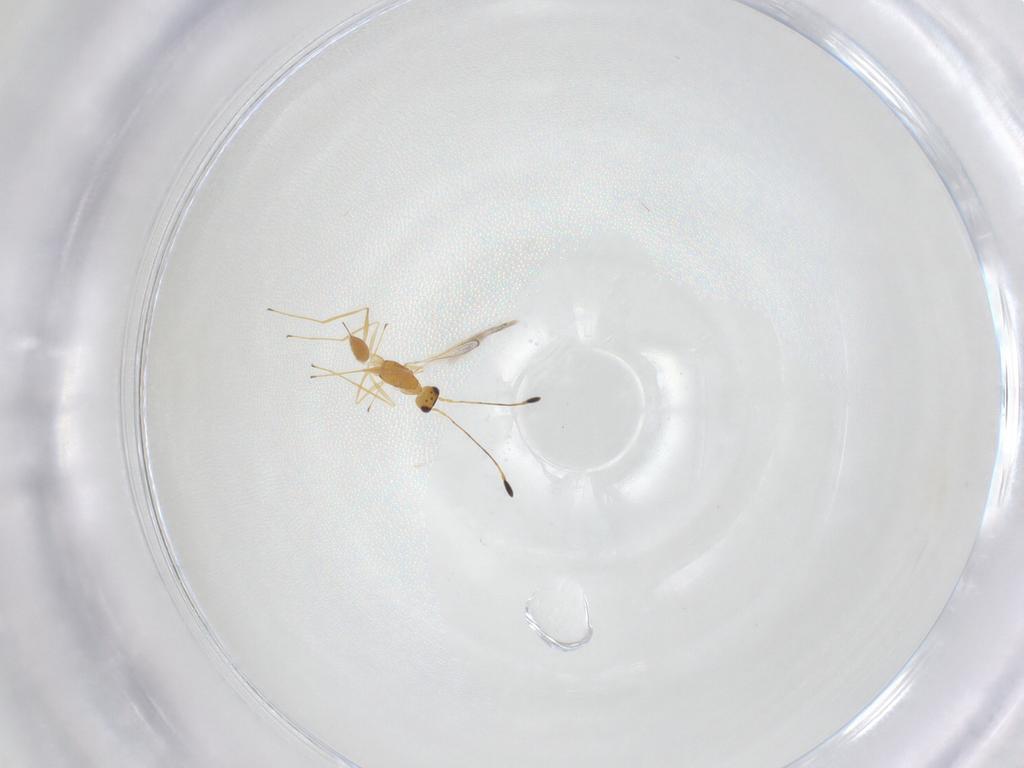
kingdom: Animalia
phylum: Arthropoda
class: Insecta
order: Hymenoptera
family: Mymaridae
